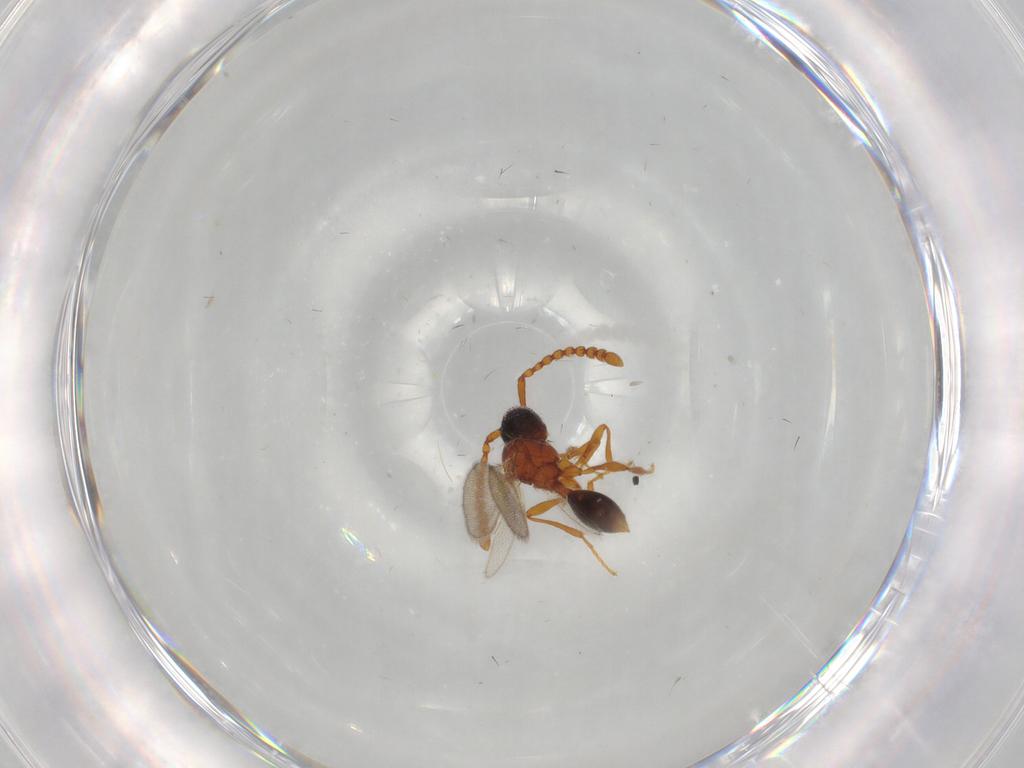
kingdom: Animalia
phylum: Arthropoda
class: Insecta
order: Hymenoptera
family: Diapriidae
